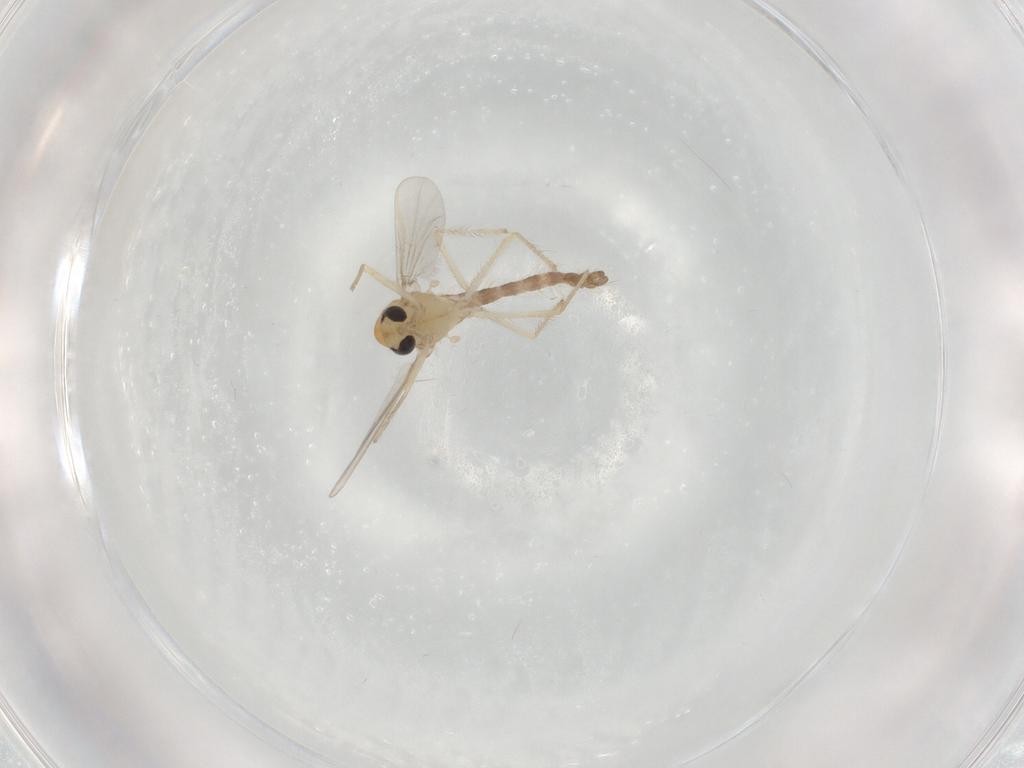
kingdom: Animalia
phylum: Arthropoda
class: Insecta
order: Diptera
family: Chironomidae
